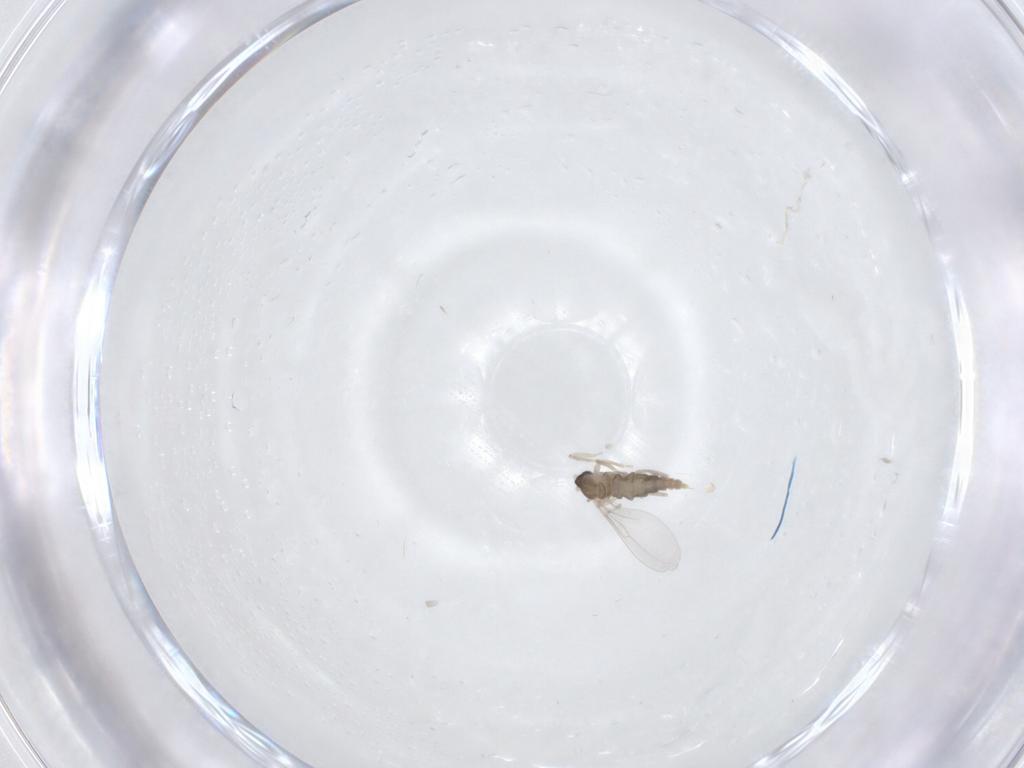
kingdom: Animalia
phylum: Arthropoda
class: Insecta
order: Diptera
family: Cecidomyiidae
